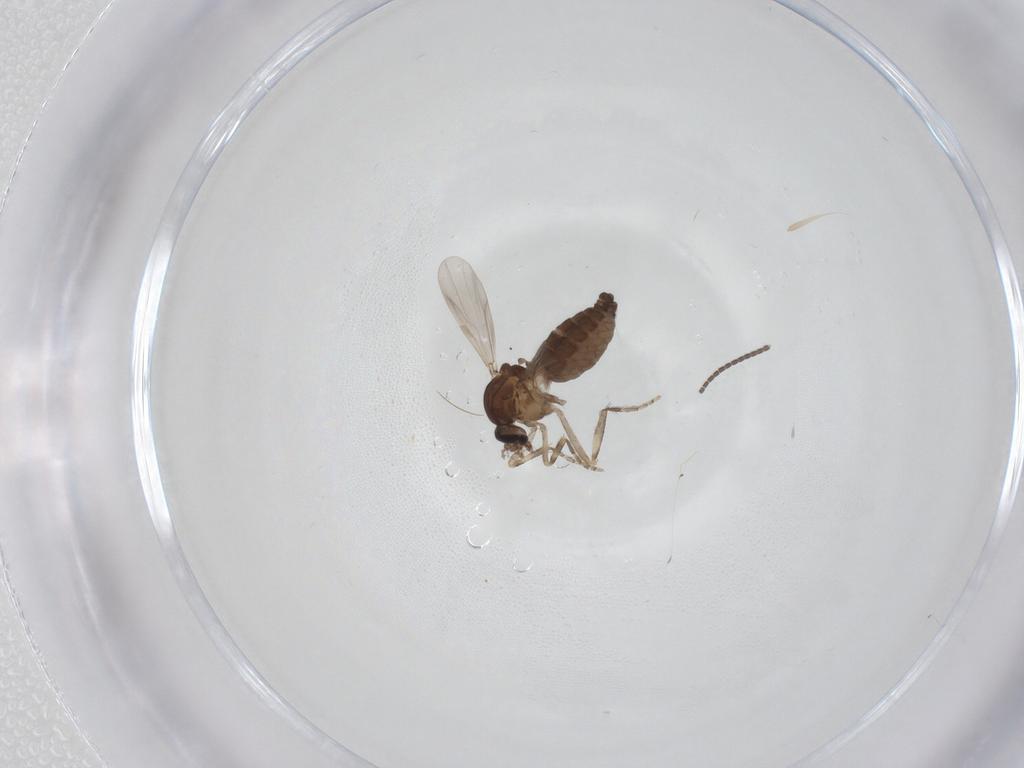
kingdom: Animalia
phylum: Arthropoda
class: Insecta
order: Diptera
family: Ceratopogonidae
